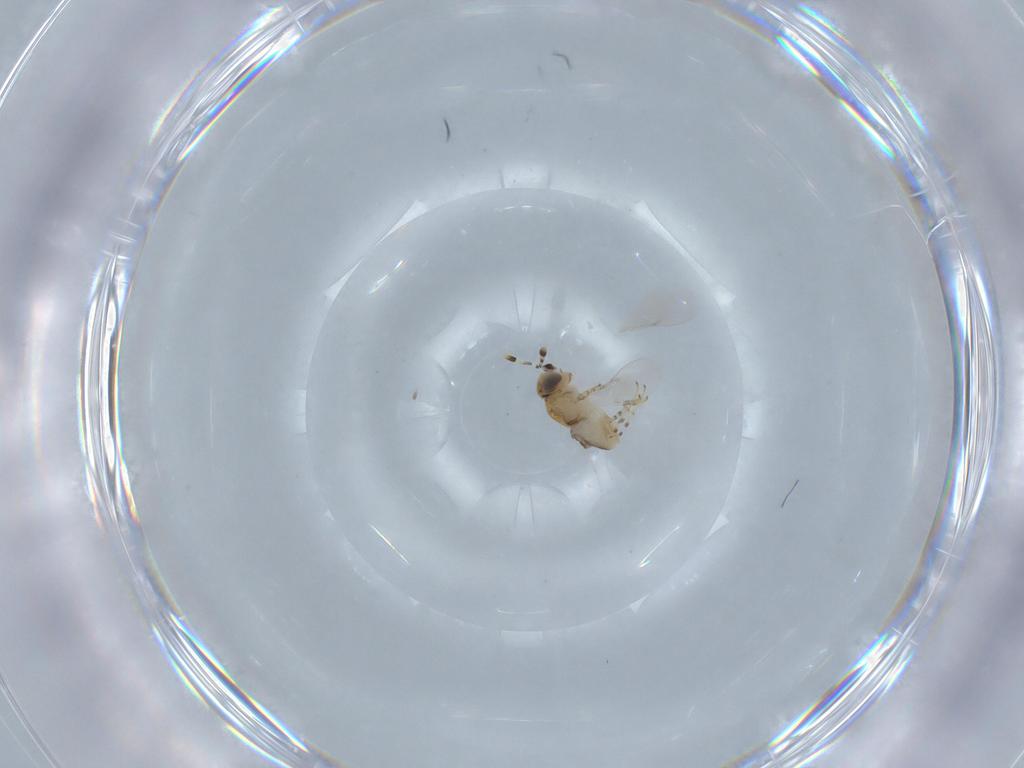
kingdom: Animalia
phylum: Arthropoda
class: Insecta
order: Hymenoptera
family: Encyrtidae
